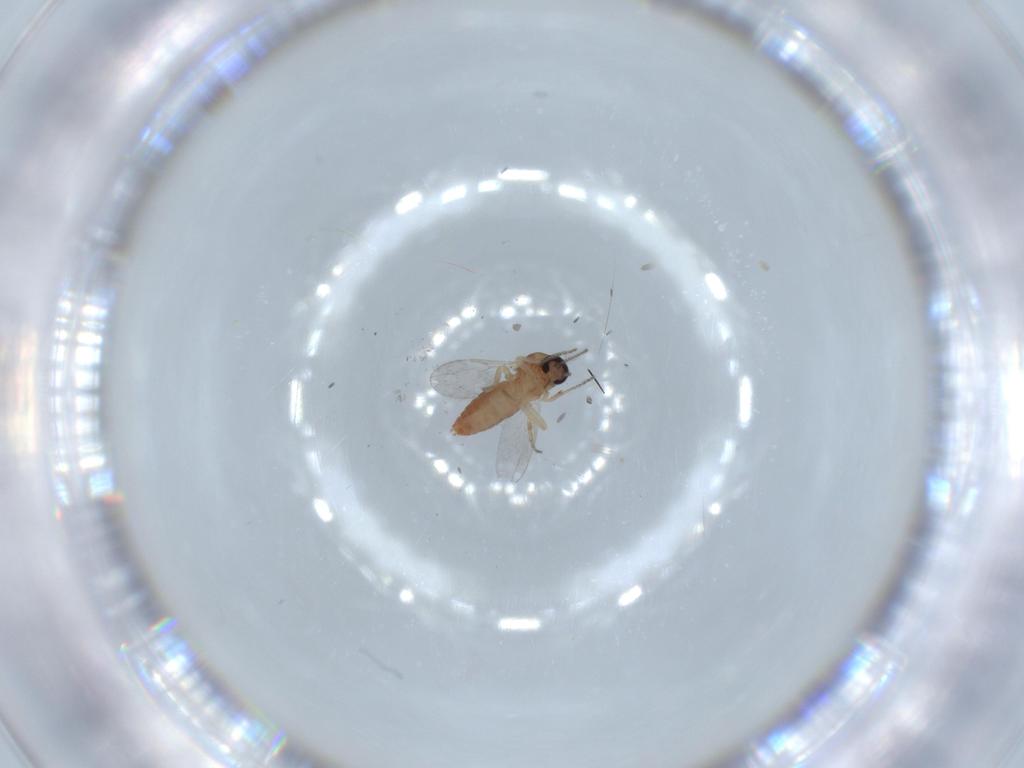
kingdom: Animalia
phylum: Arthropoda
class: Insecta
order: Diptera
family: Ceratopogonidae
